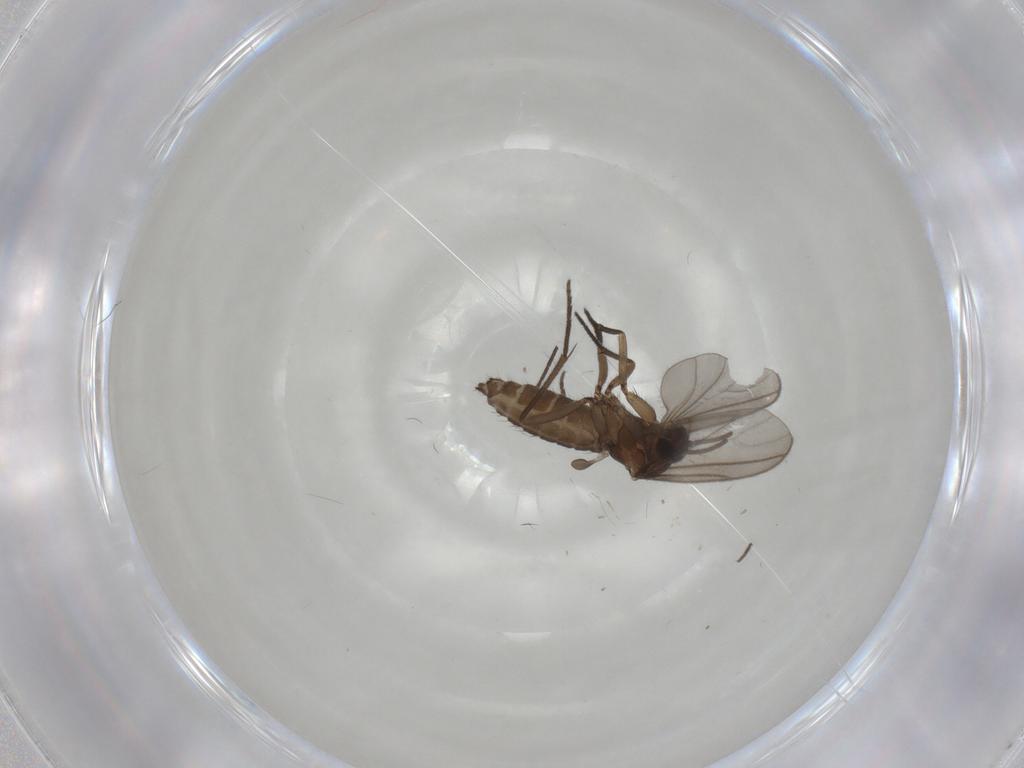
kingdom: Animalia
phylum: Arthropoda
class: Insecta
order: Diptera
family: Sciaridae
